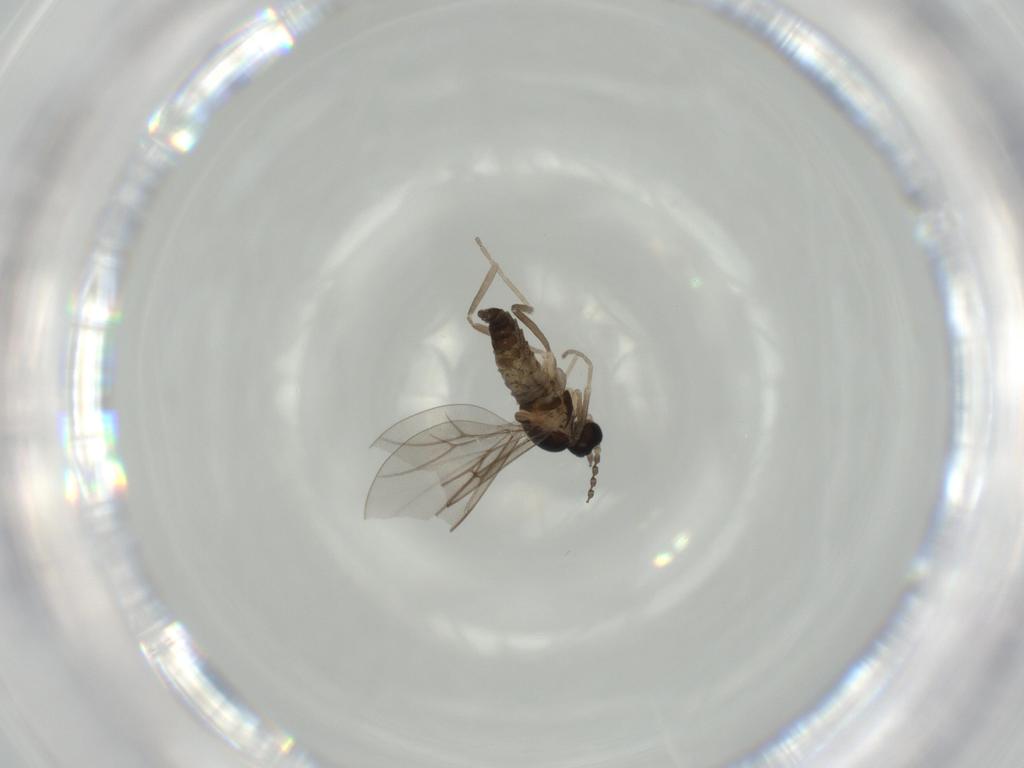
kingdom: Animalia
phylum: Arthropoda
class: Insecta
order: Diptera
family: Cecidomyiidae
